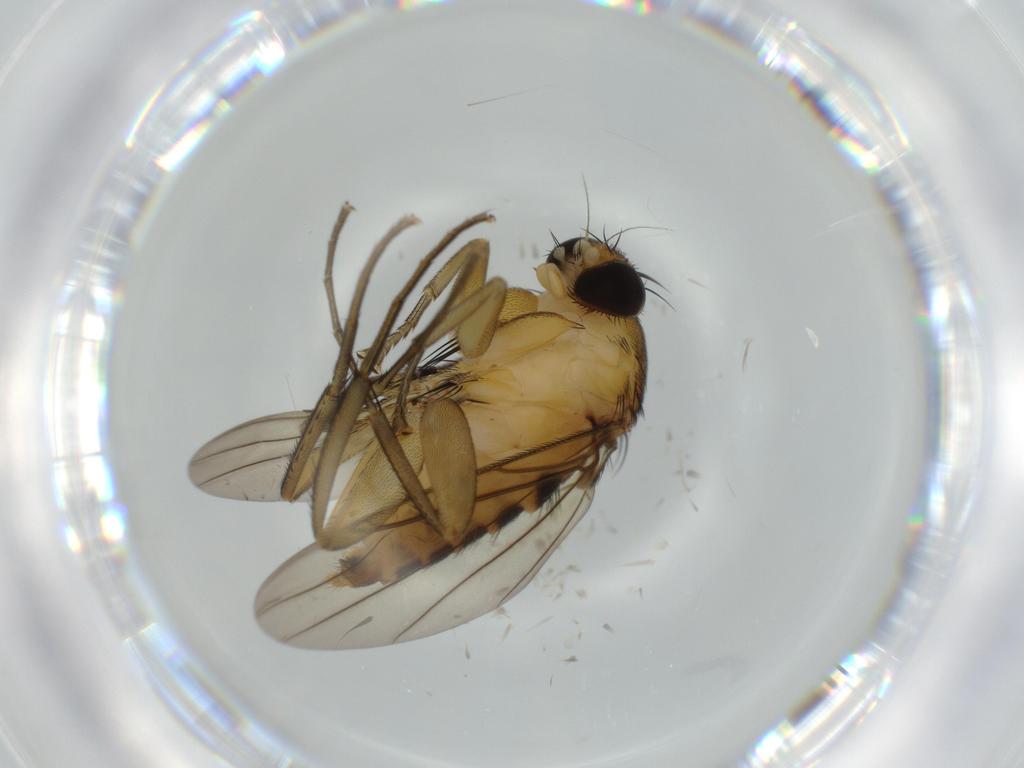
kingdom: Animalia
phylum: Arthropoda
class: Insecta
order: Diptera
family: Phoridae
